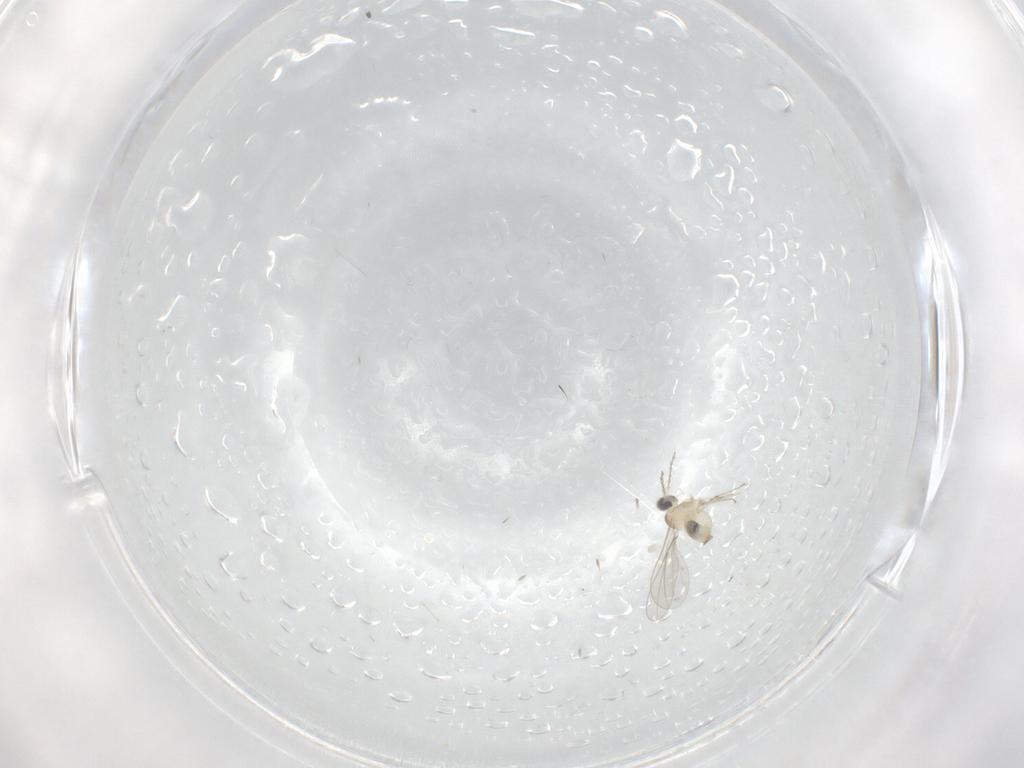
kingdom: Animalia
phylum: Arthropoda
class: Insecta
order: Diptera
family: Cecidomyiidae
